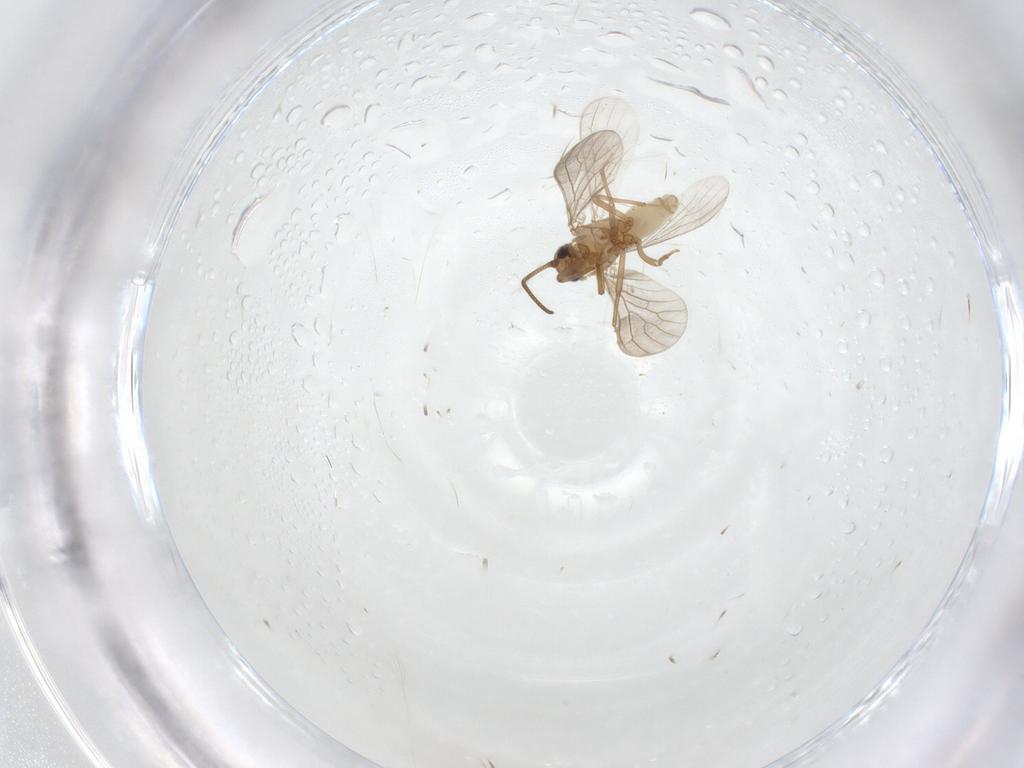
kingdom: Animalia
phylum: Arthropoda
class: Insecta
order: Neuroptera
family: Coniopterygidae
